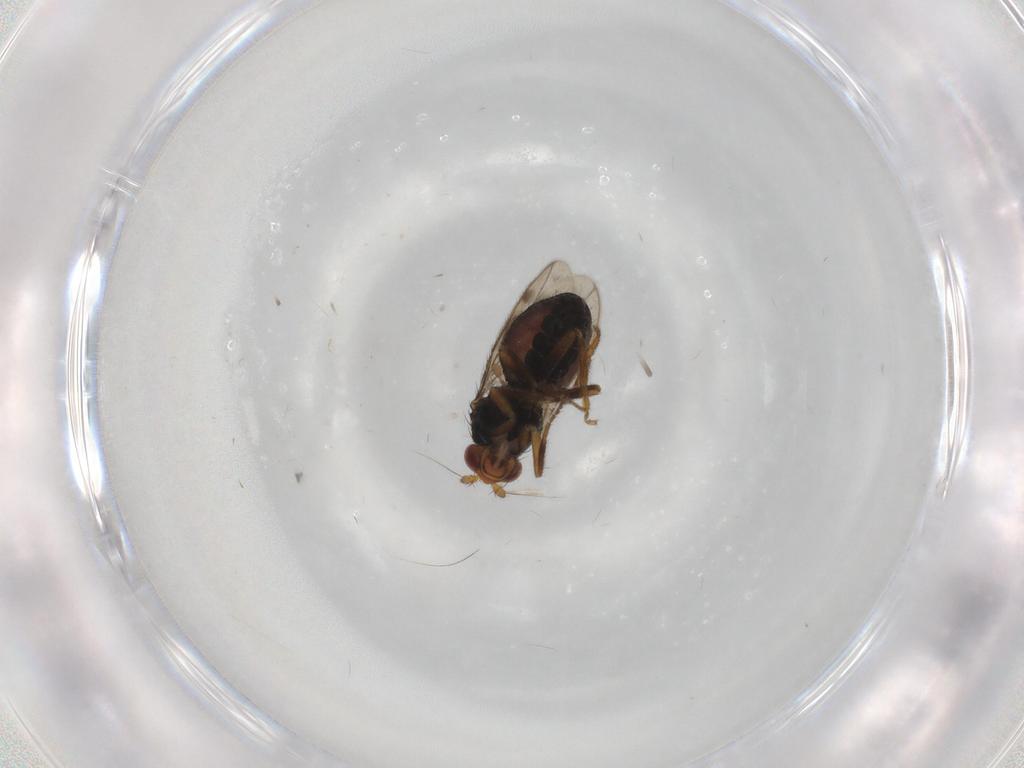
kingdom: Animalia
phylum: Arthropoda
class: Insecta
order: Diptera
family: Sphaeroceridae
